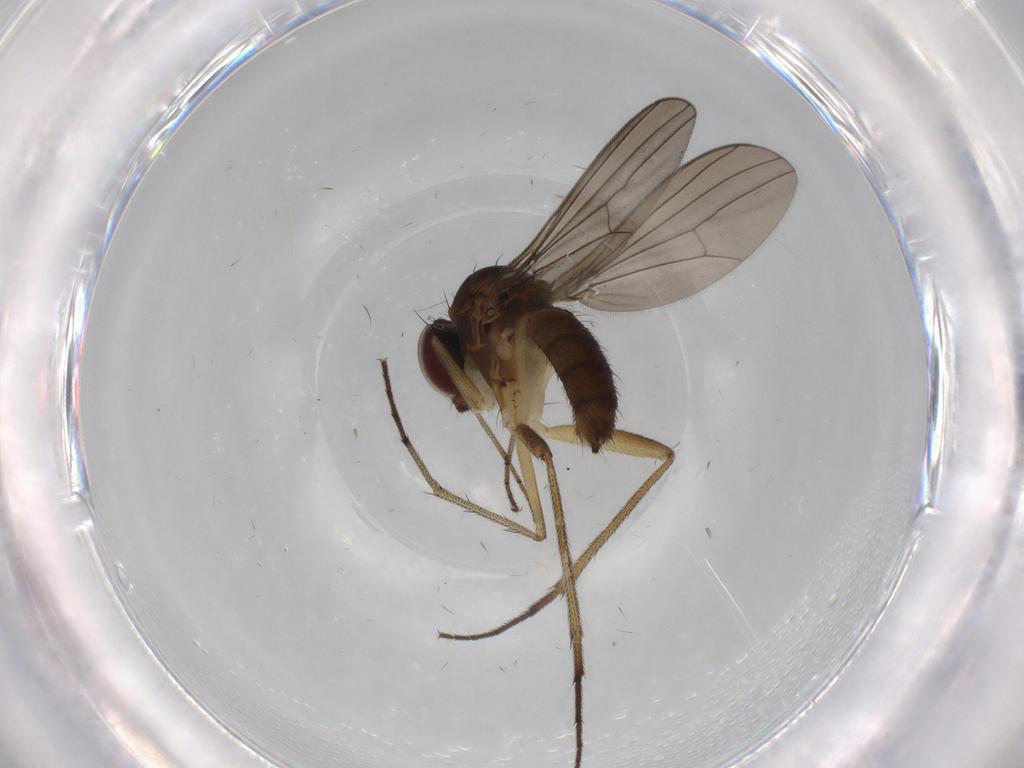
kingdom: Animalia
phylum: Arthropoda
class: Insecta
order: Diptera
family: Dolichopodidae
